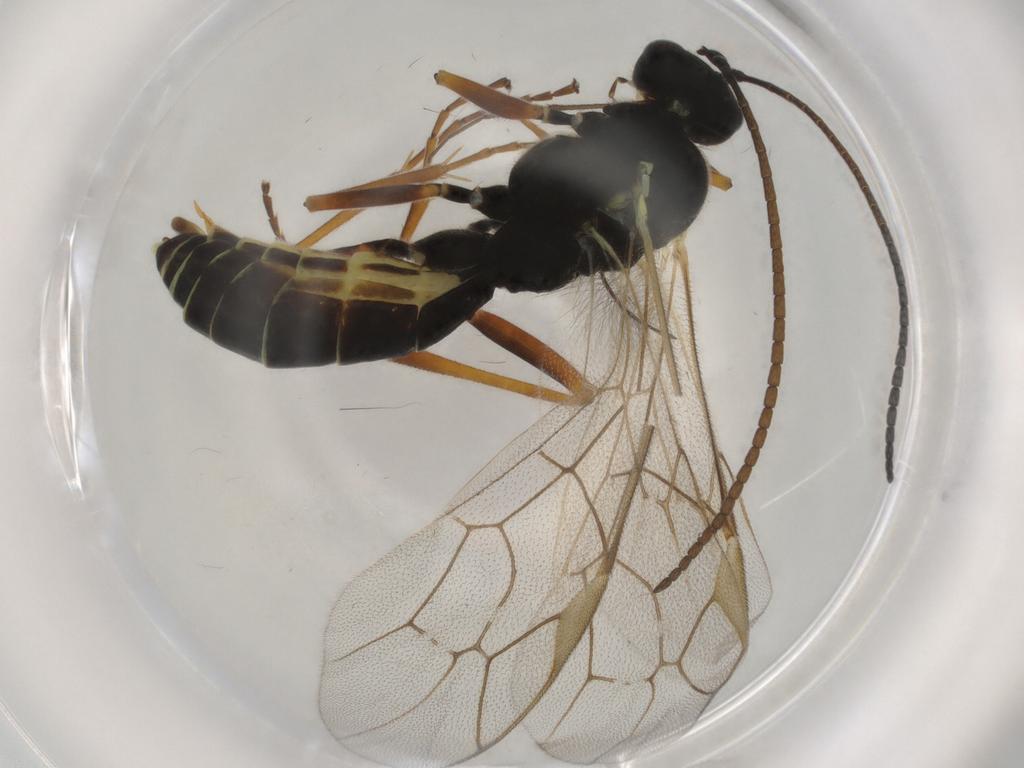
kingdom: Animalia
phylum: Arthropoda
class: Insecta
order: Hymenoptera
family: Ichneumonidae
